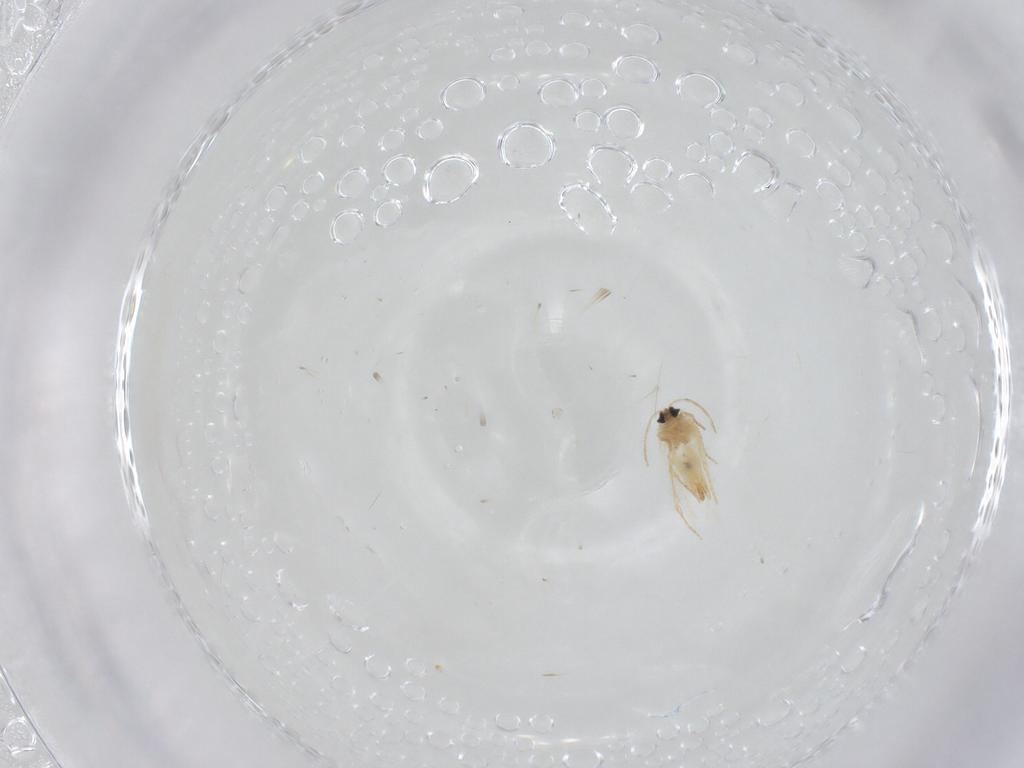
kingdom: Animalia
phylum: Arthropoda
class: Insecta
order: Lepidoptera
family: Crambidae
